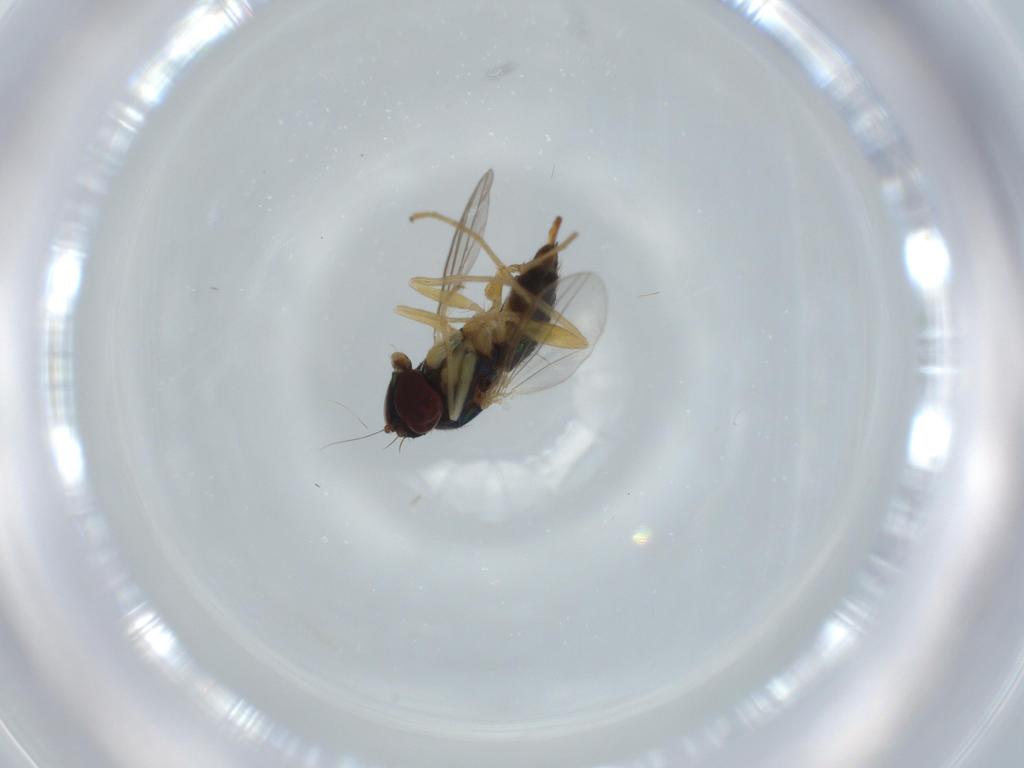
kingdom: Animalia
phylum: Arthropoda
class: Insecta
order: Diptera
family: Dolichopodidae
